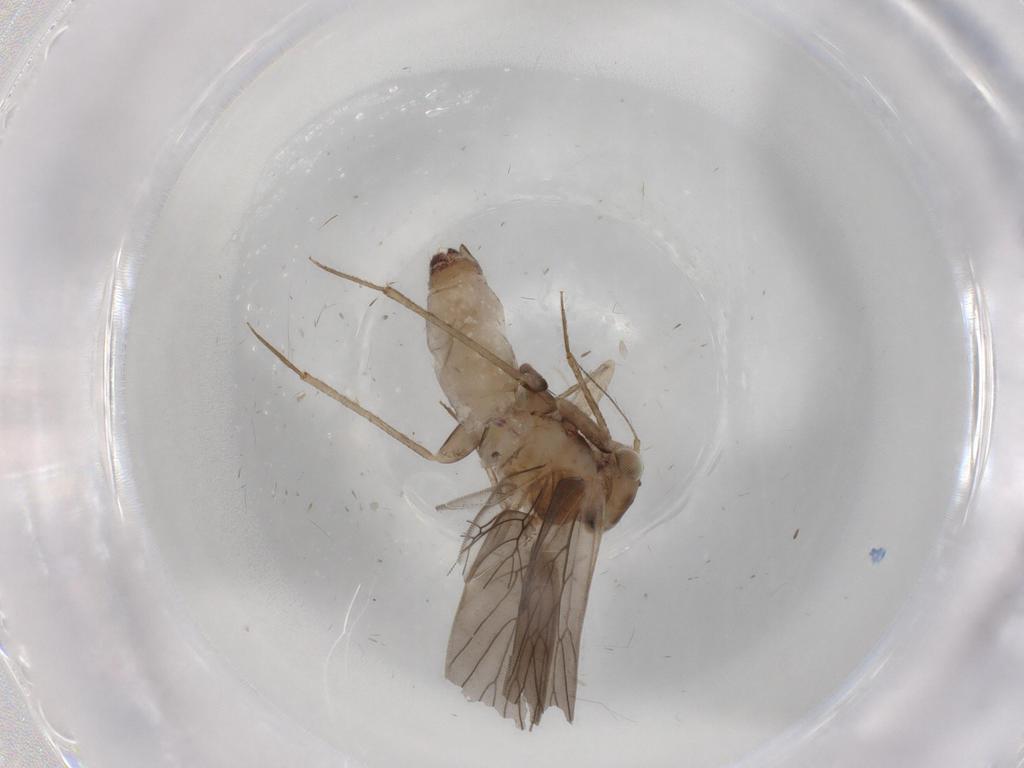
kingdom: Animalia
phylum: Arthropoda
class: Insecta
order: Psocodea
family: Lepidopsocidae
